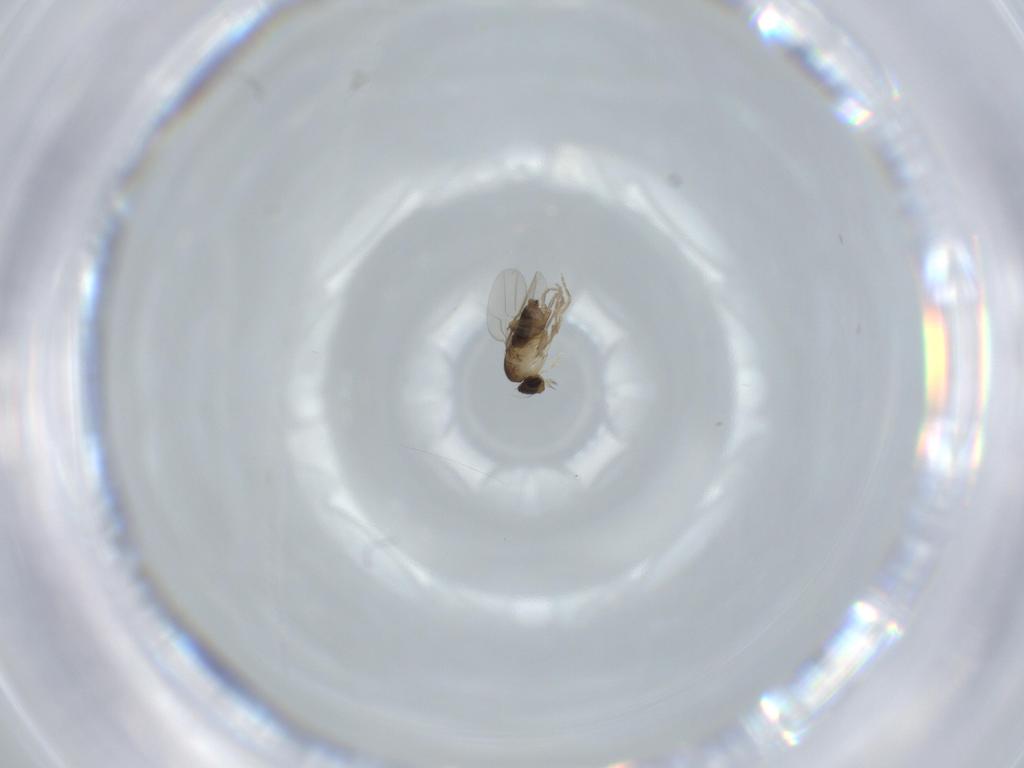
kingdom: Animalia
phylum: Arthropoda
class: Insecta
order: Diptera
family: Phoridae
